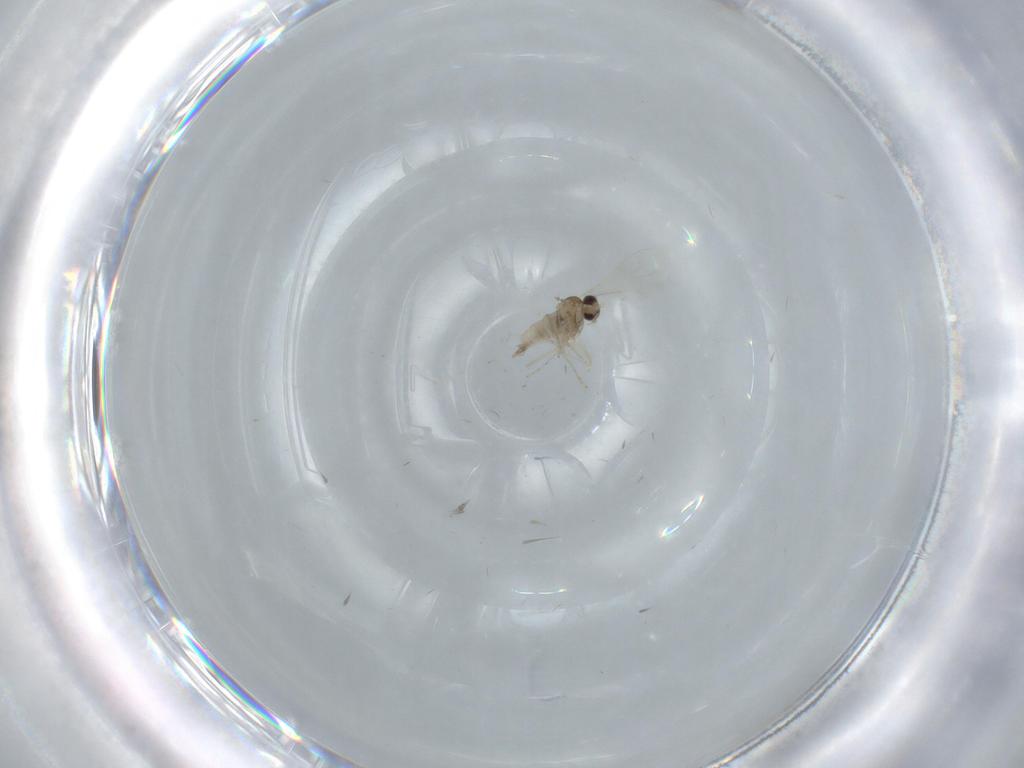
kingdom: Animalia
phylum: Arthropoda
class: Insecta
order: Diptera
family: Cecidomyiidae
